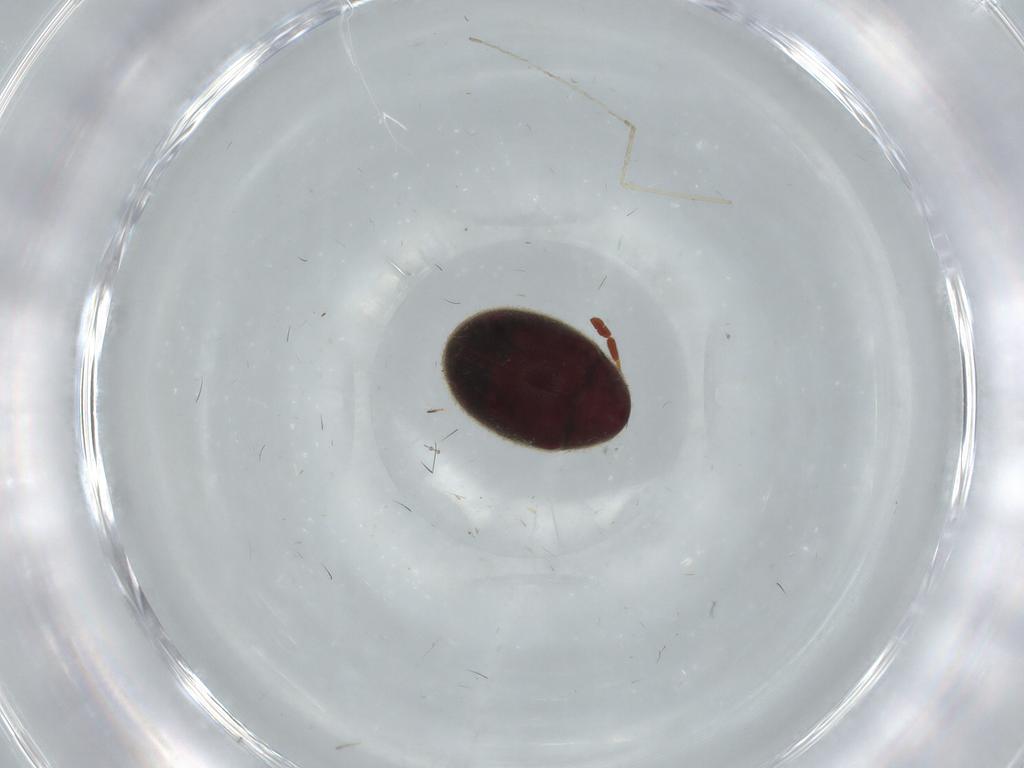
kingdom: Animalia
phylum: Arthropoda
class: Insecta
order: Coleoptera
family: Ptinidae
